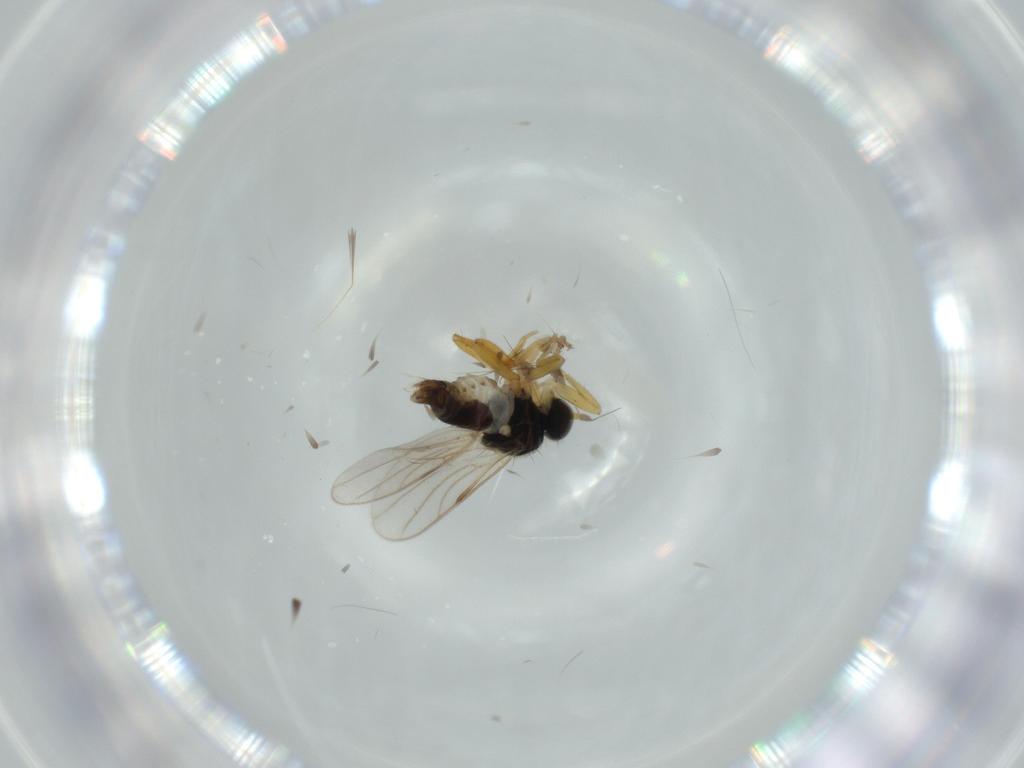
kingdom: Animalia
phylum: Arthropoda
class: Insecta
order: Diptera
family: Hybotidae
